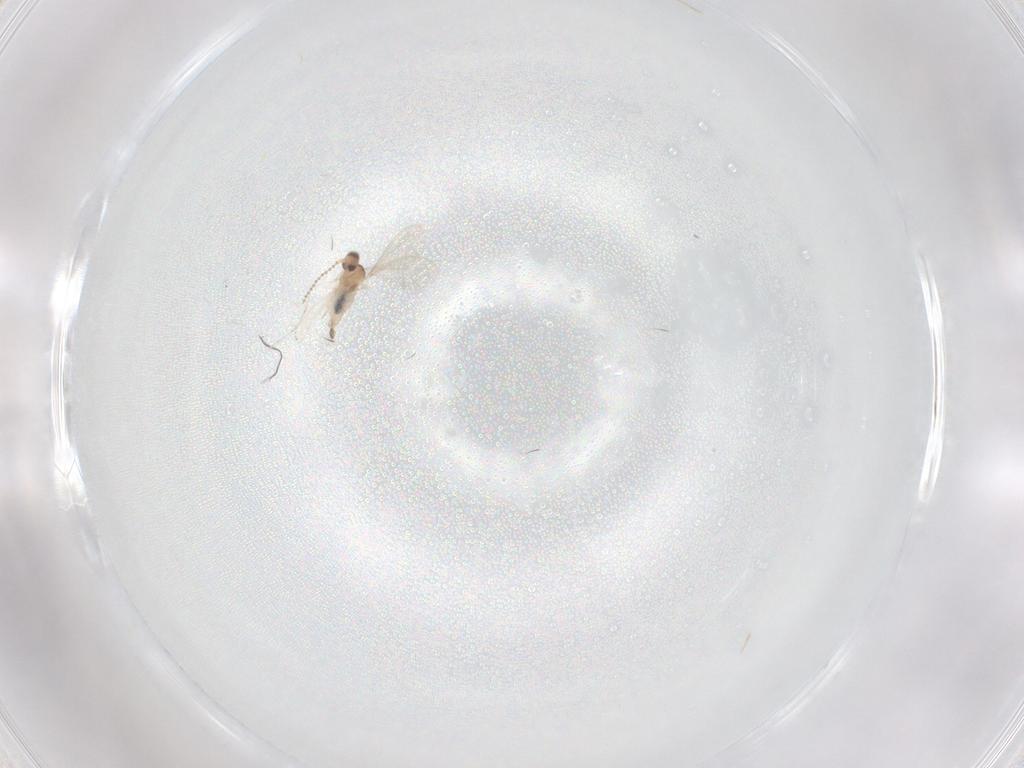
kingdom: Animalia
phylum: Arthropoda
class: Insecta
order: Diptera
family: Cecidomyiidae
